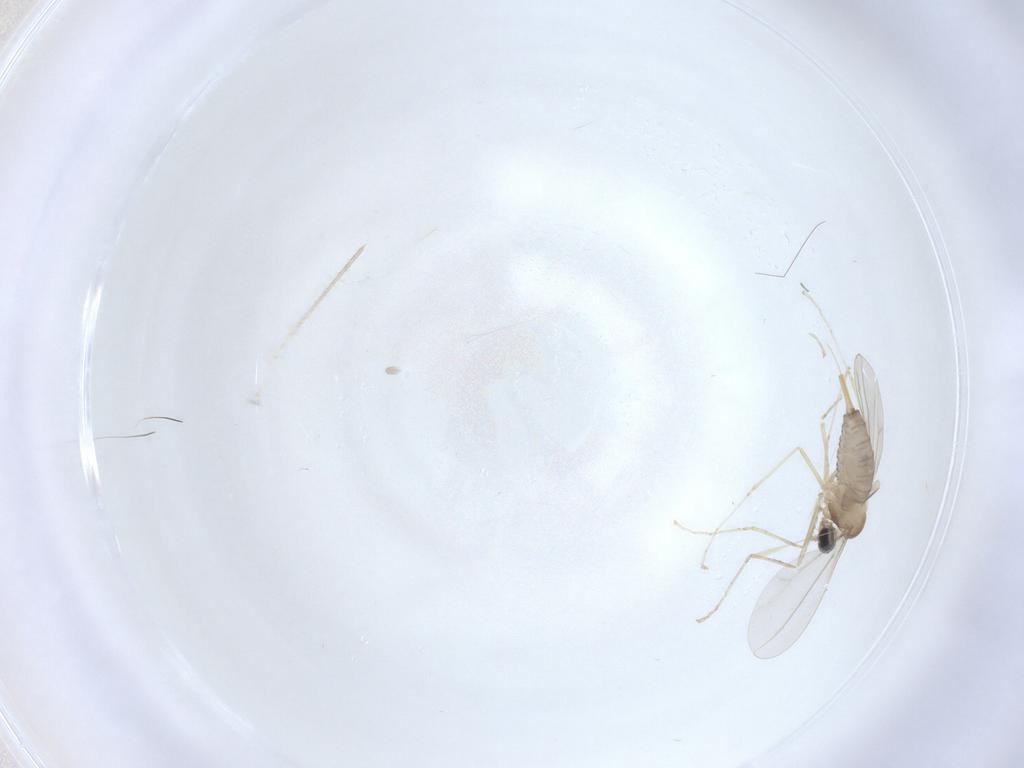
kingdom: Animalia
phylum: Arthropoda
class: Insecta
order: Diptera
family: Cecidomyiidae
